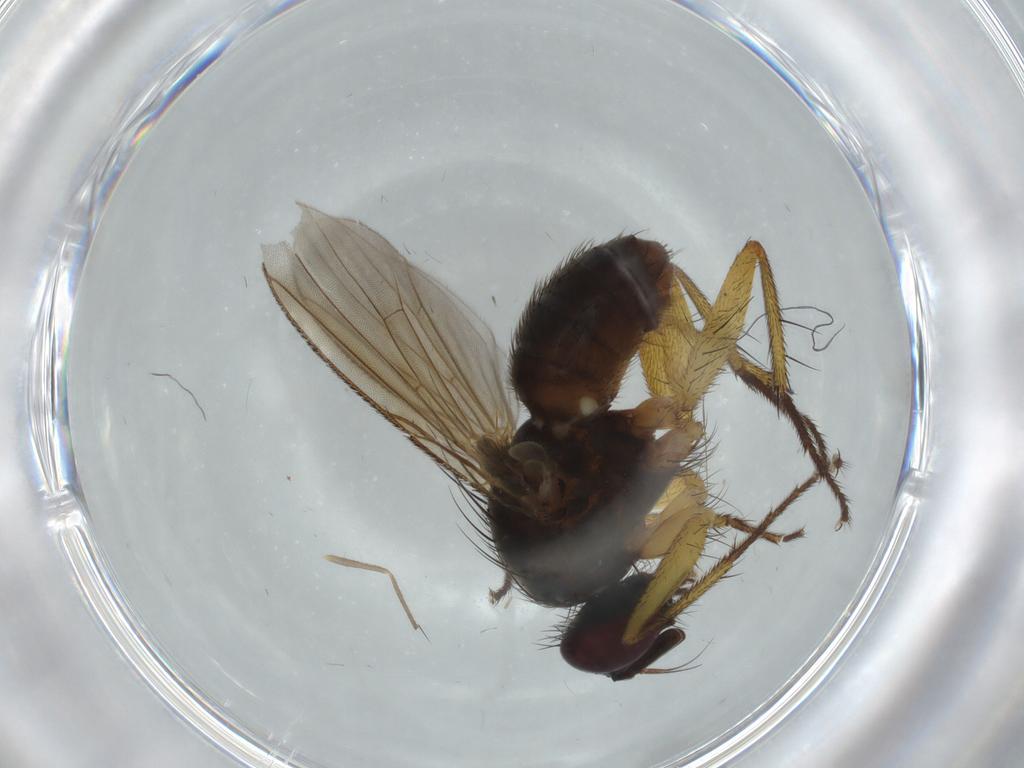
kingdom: Animalia
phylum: Arthropoda
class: Insecta
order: Diptera
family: Muscidae
